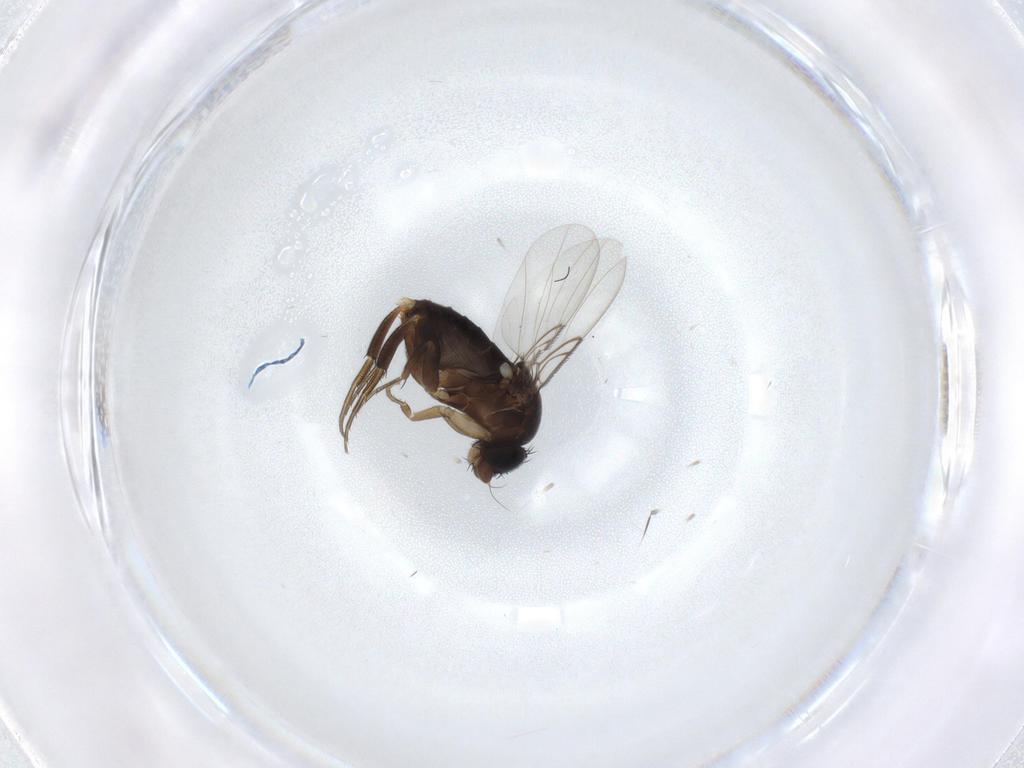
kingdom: Animalia
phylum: Arthropoda
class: Insecta
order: Diptera
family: Phoridae
